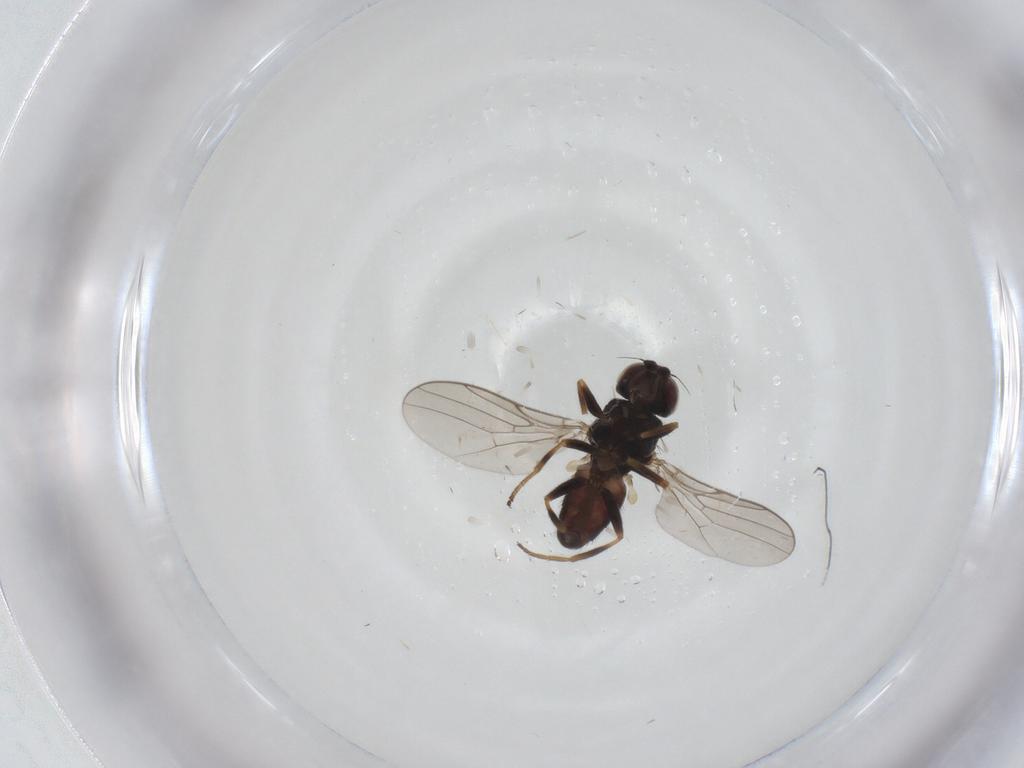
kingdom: Animalia
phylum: Arthropoda
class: Insecta
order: Diptera
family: Chloropidae
